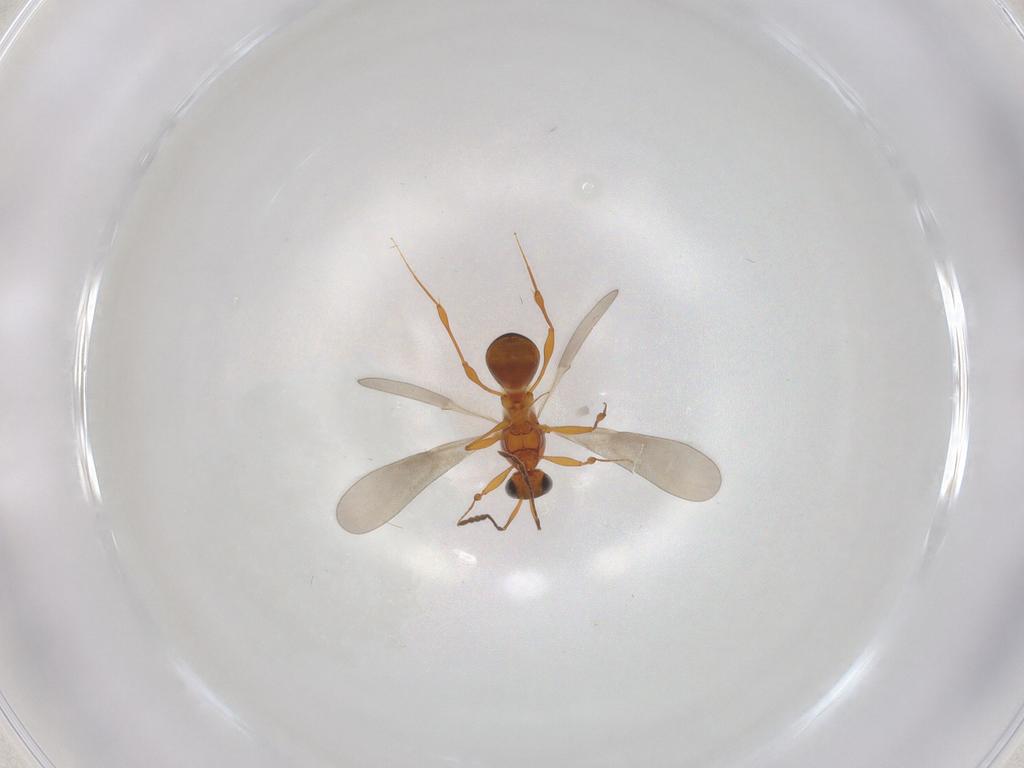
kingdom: Animalia
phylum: Arthropoda
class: Insecta
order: Hymenoptera
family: Platygastridae
